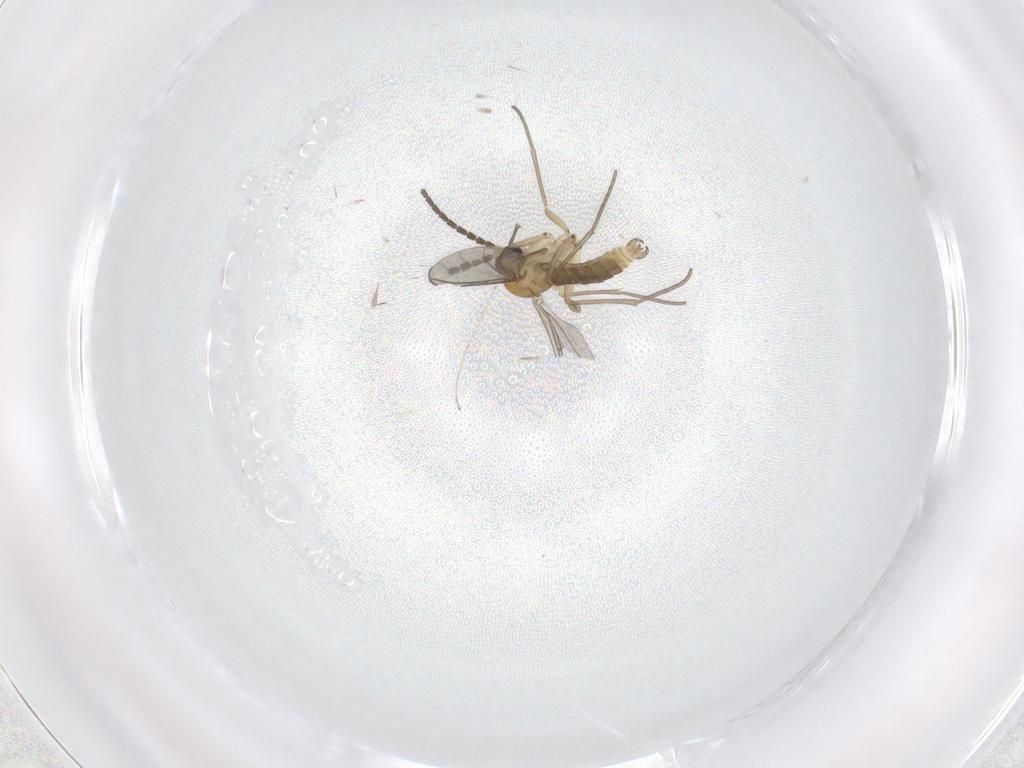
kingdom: Animalia
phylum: Arthropoda
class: Insecta
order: Diptera
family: Sciaridae
